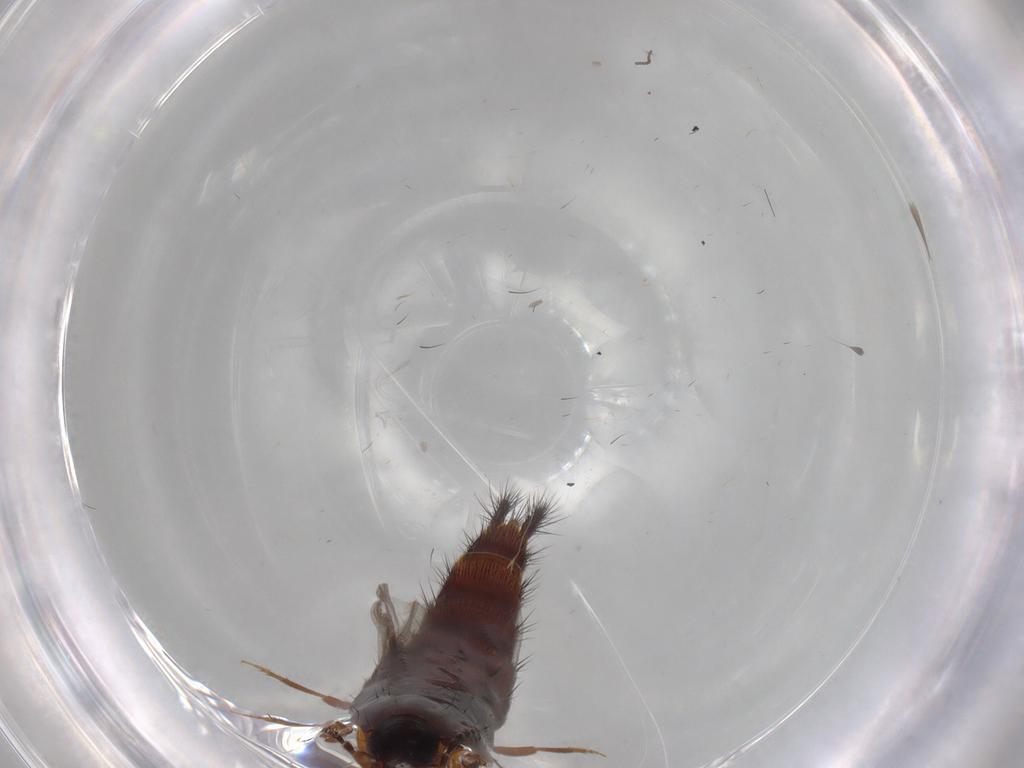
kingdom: Animalia
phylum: Arthropoda
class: Insecta
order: Coleoptera
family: Staphylinidae
